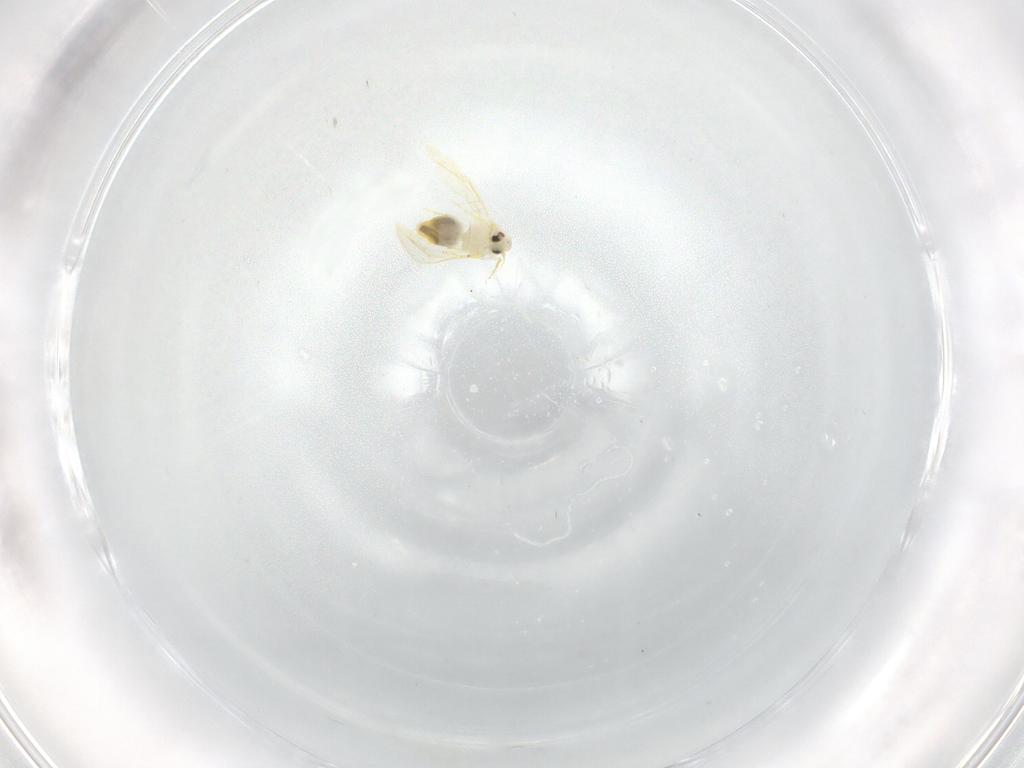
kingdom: Animalia
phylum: Arthropoda
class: Insecta
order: Hemiptera
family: Aleyrodidae
